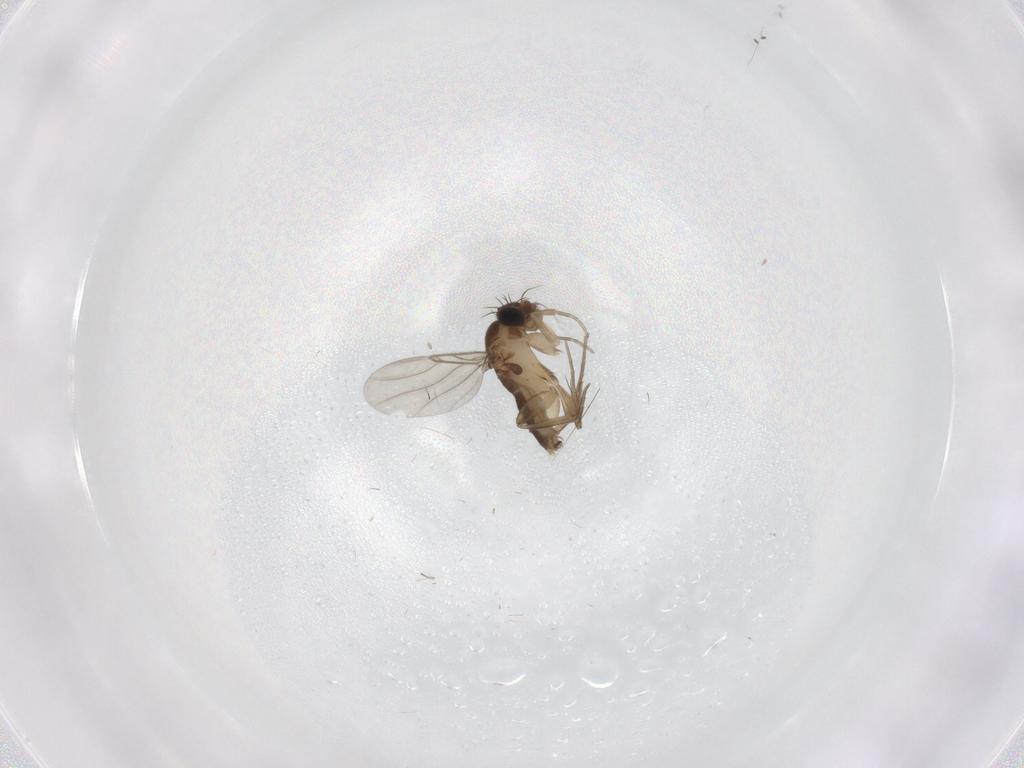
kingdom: Animalia
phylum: Arthropoda
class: Insecta
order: Diptera
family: Phoridae
